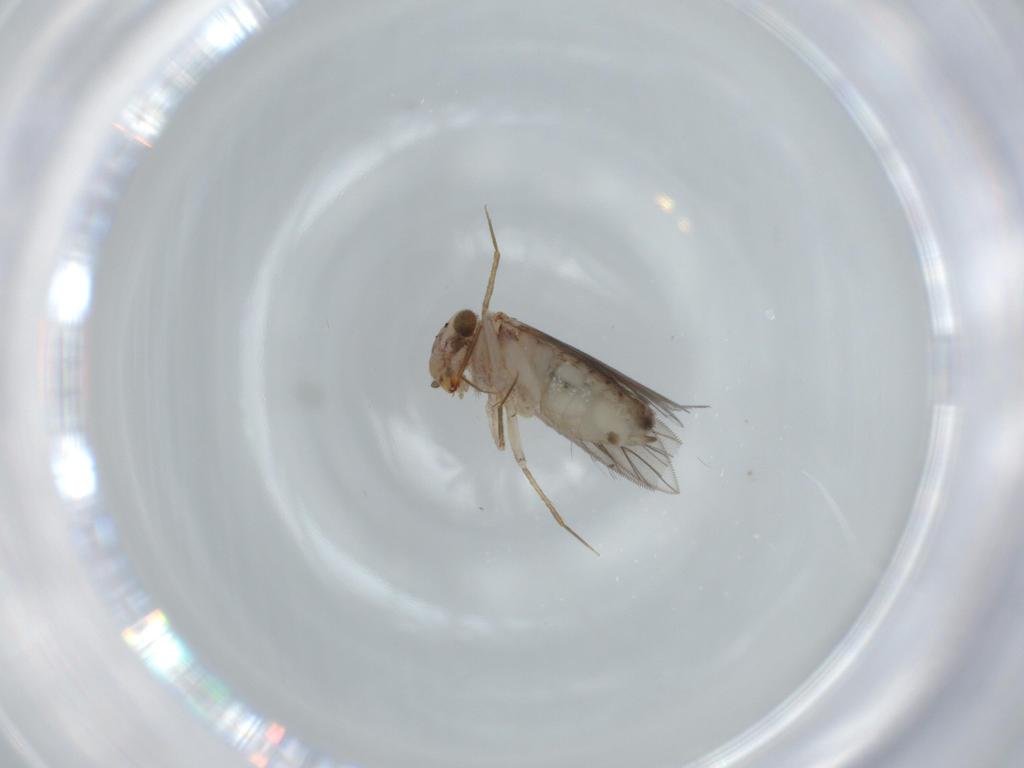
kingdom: Animalia
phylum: Arthropoda
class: Insecta
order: Psocodea
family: Lepidopsocidae
